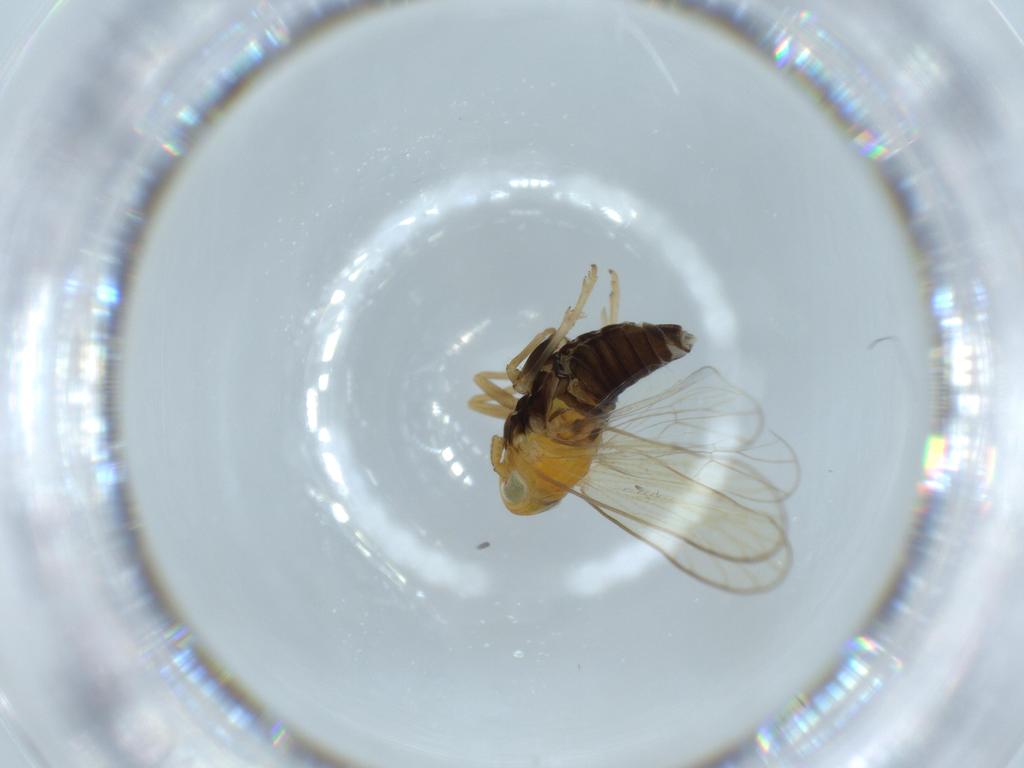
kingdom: Animalia
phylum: Arthropoda
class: Insecta
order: Hemiptera
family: Delphacidae
